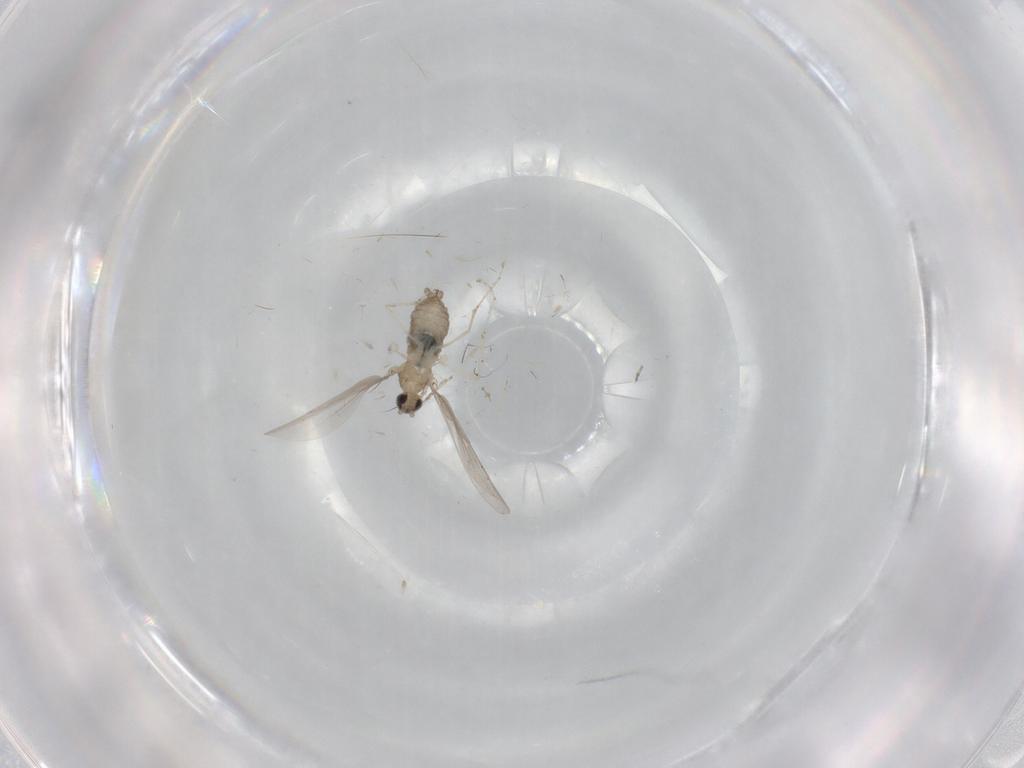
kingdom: Animalia
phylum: Arthropoda
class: Insecta
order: Diptera
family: Cecidomyiidae
